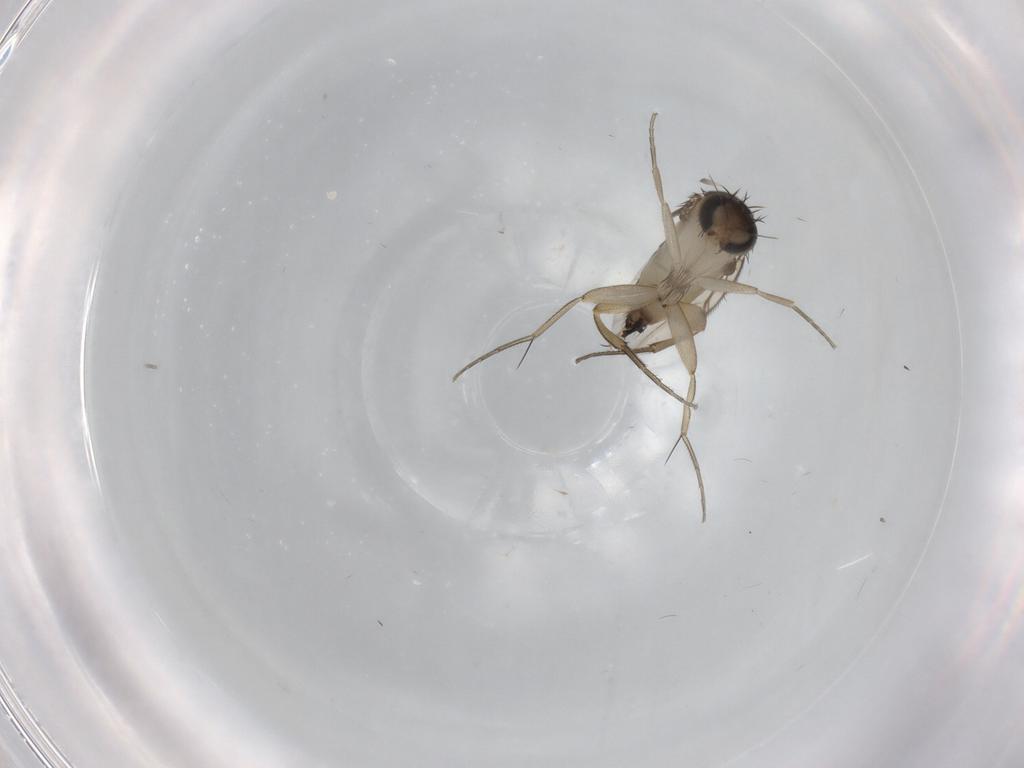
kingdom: Animalia
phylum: Arthropoda
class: Insecta
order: Diptera
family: Phoridae
